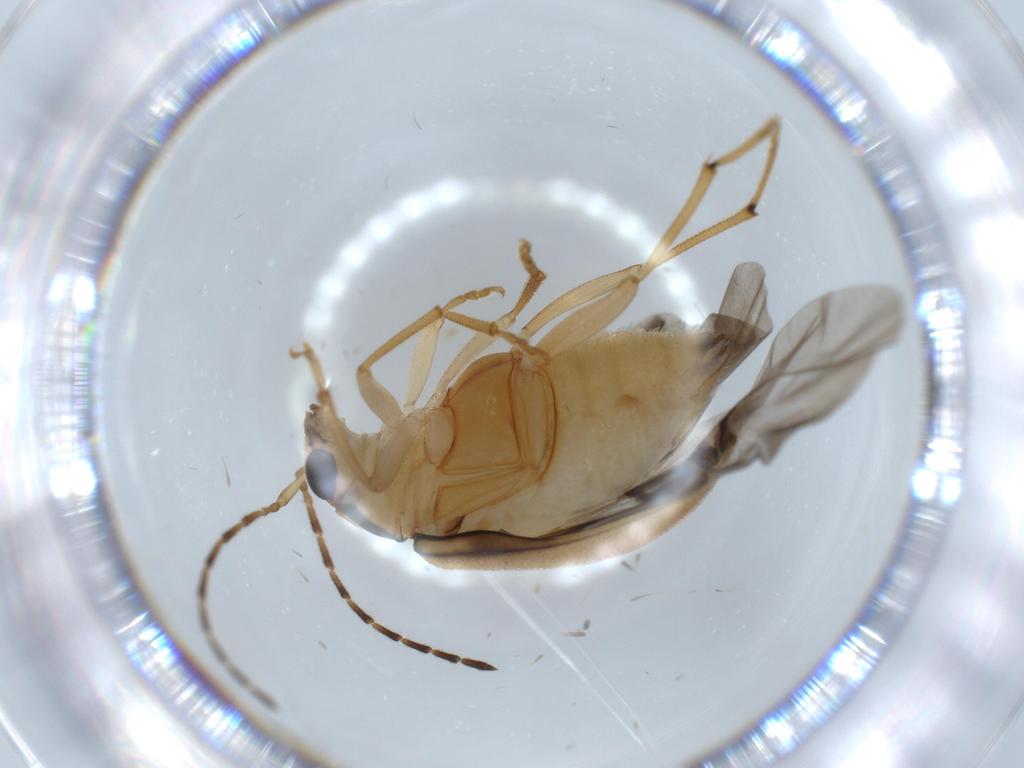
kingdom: Animalia
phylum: Arthropoda
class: Insecta
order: Coleoptera
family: Chrysomelidae
